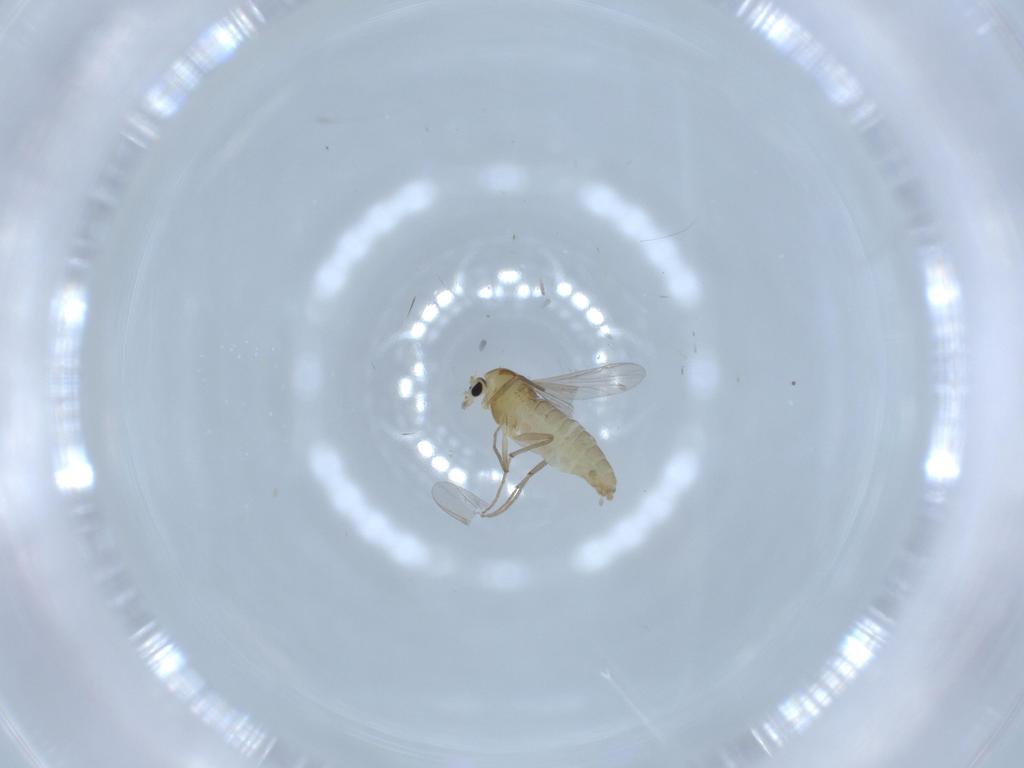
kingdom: Animalia
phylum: Arthropoda
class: Insecta
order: Diptera
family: Chironomidae
